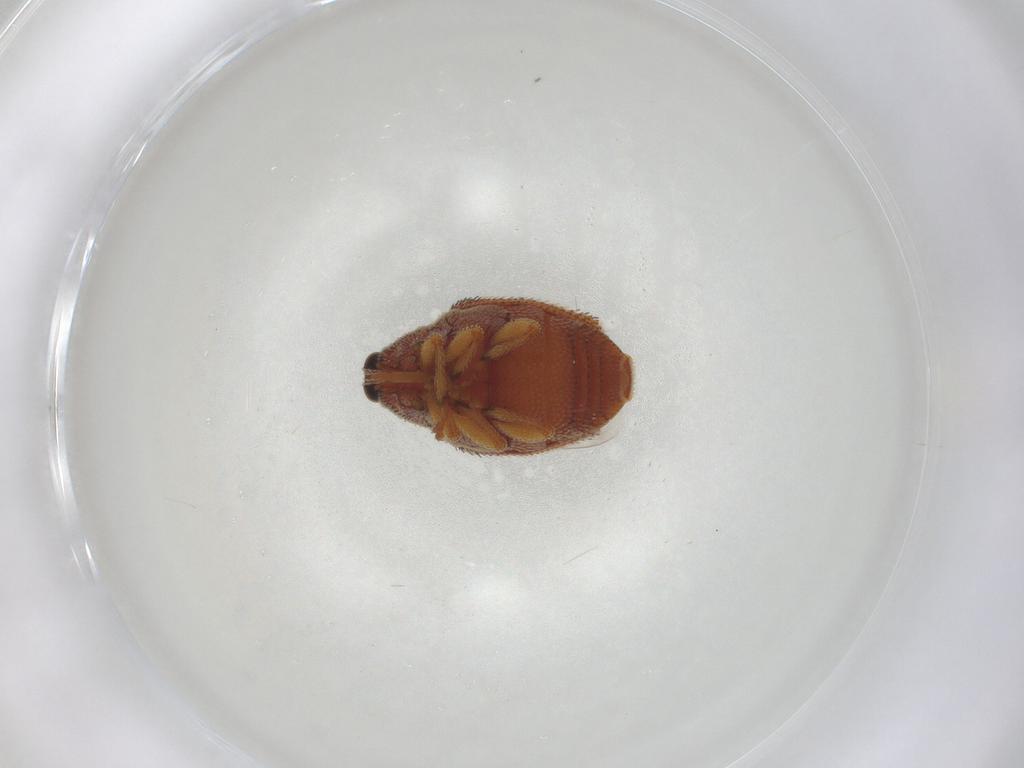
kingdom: Animalia
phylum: Arthropoda
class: Insecta
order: Coleoptera
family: Curculionidae
